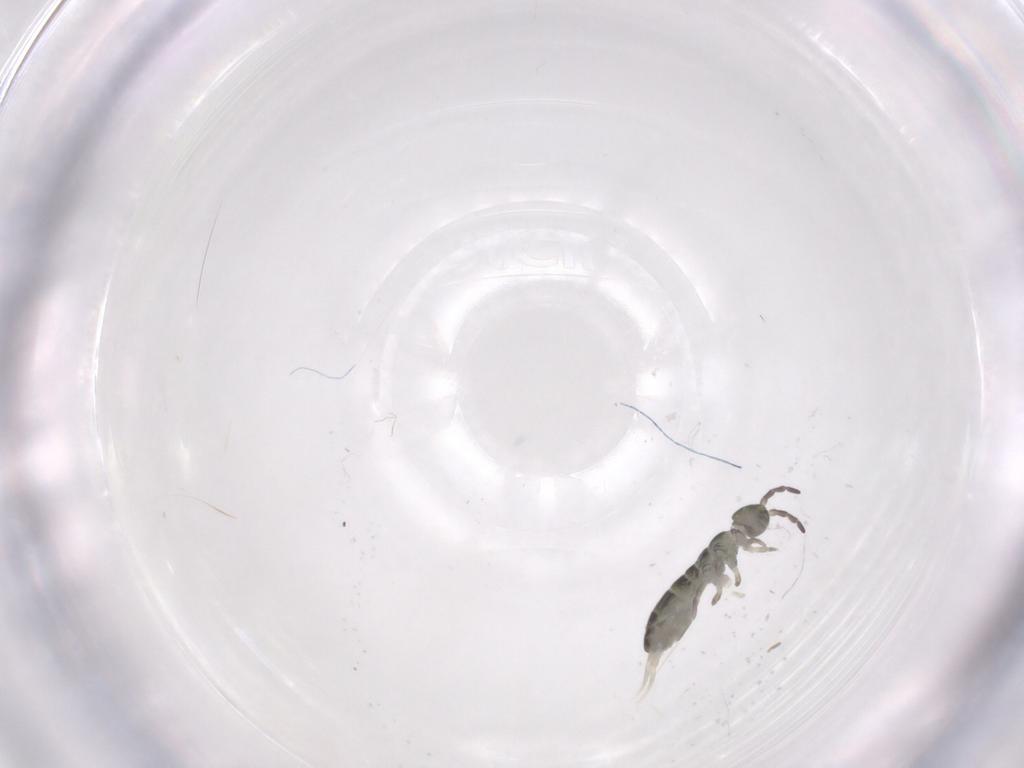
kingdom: Animalia
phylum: Arthropoda
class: Collembola
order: Entomobryomorpha
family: Isotomidae
